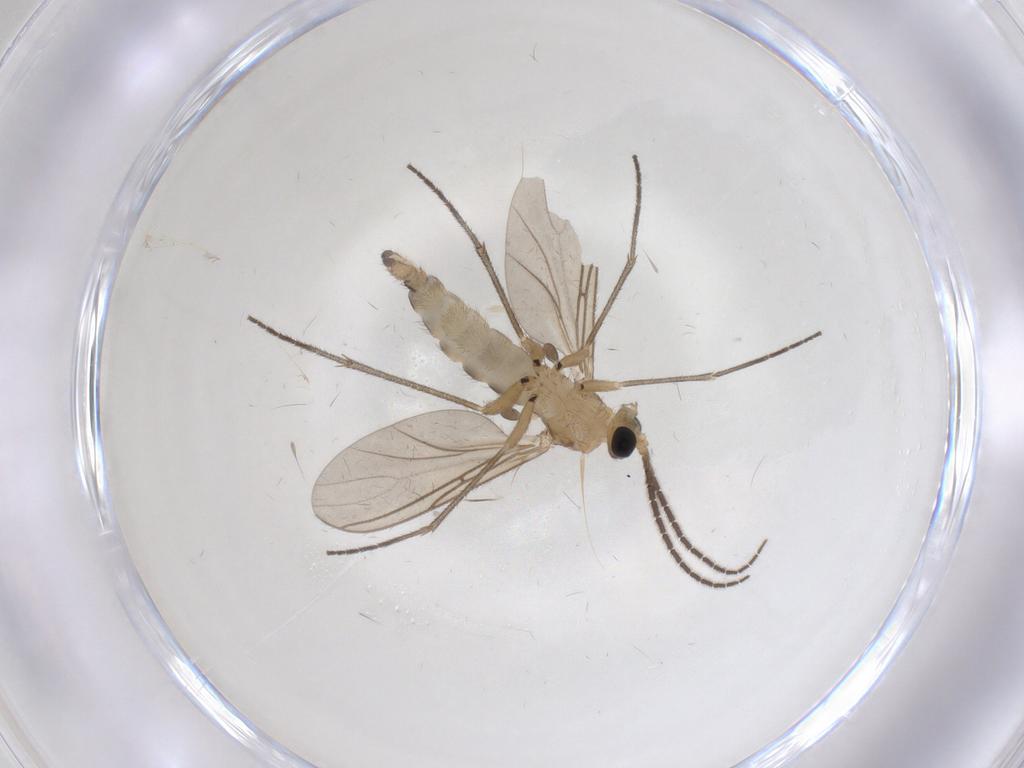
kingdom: Animalia
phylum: Arthropoda
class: Insecta
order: Diptera
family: Sciaridae
